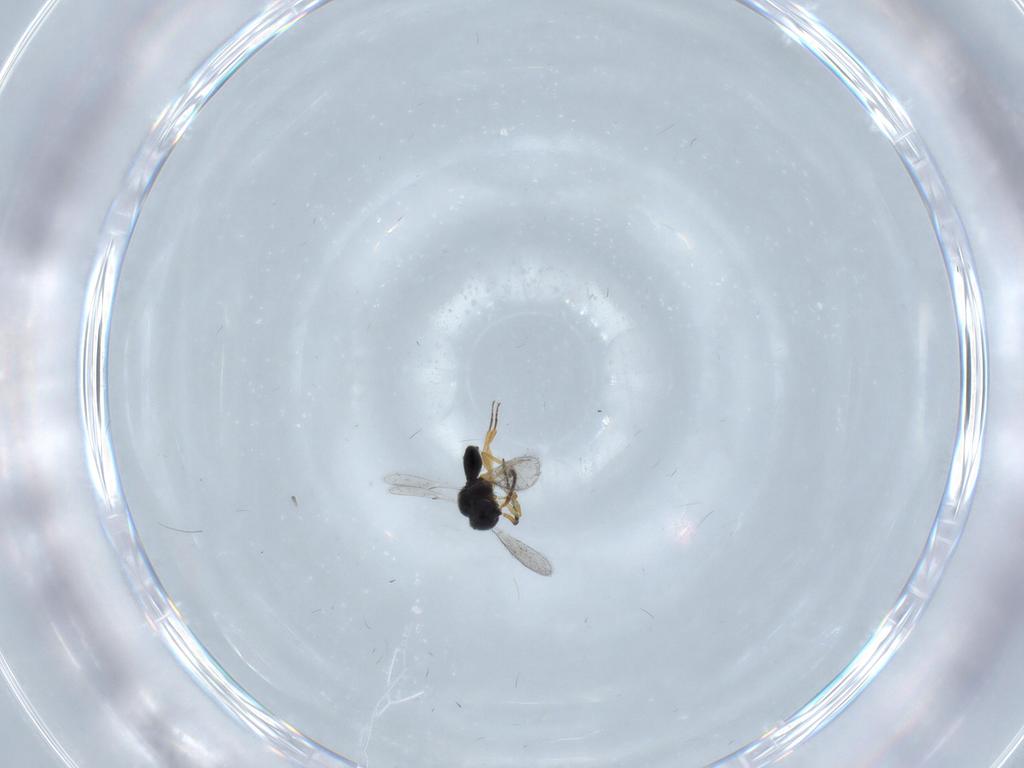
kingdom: Animalia
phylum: Arthropoda
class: Insecta
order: Hymenoptera
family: Scelionidae
